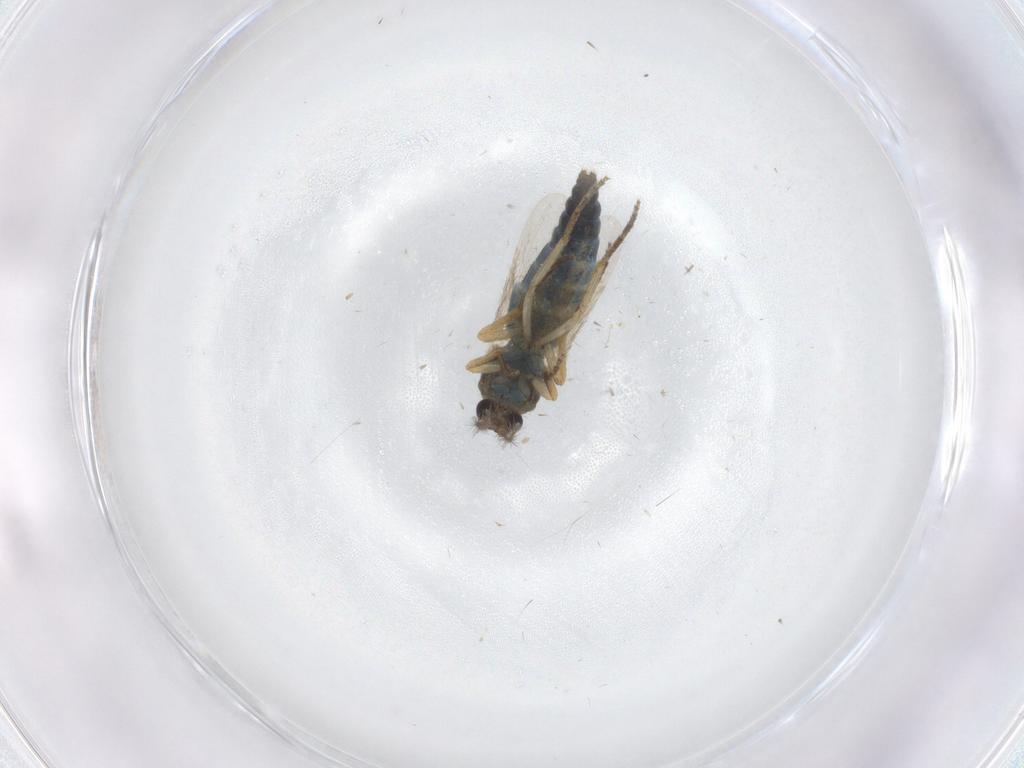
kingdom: Animalia
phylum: Arthropoda
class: Insecta
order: Diptera
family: Ceratopogonidae
